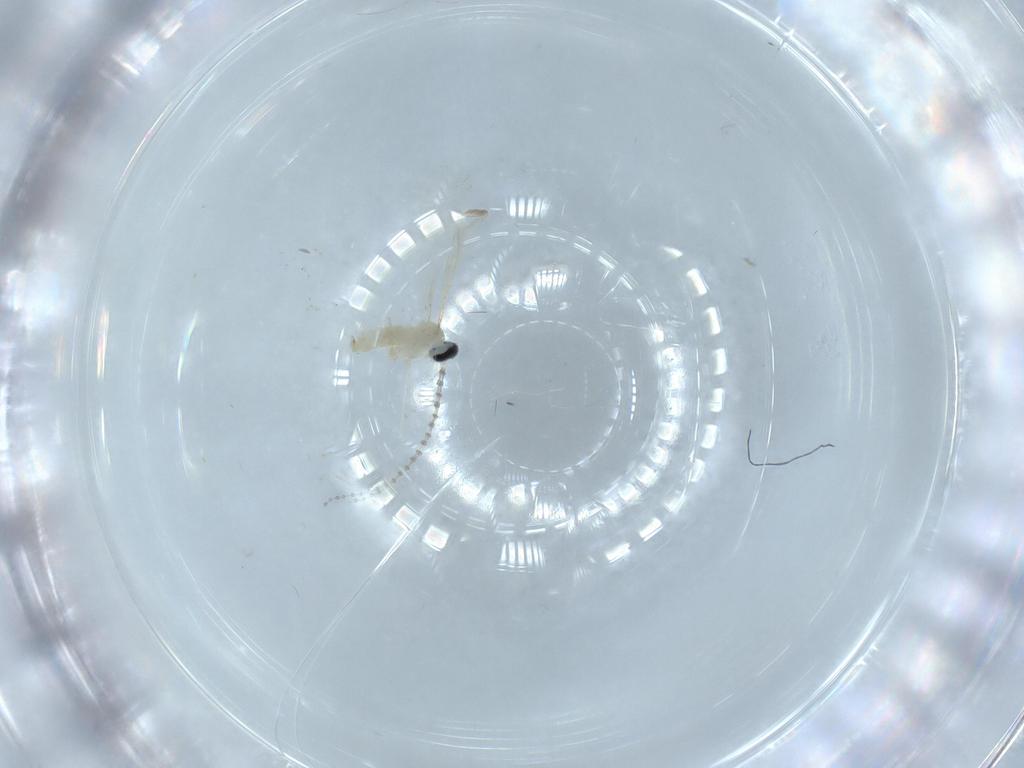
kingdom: Animalia
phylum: Arthropoda
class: Insecta
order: Diptera
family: Cecidomyiidae
